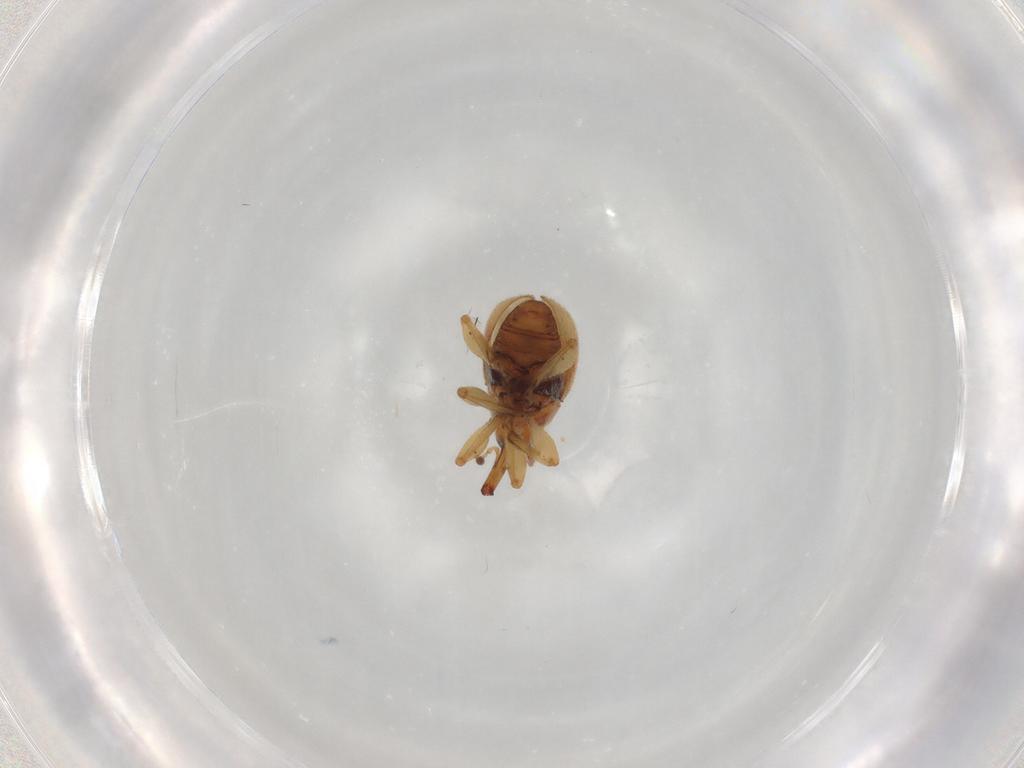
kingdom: Animalia
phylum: Arthropoda
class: Insecta
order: Coleoptera
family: Brentidae
